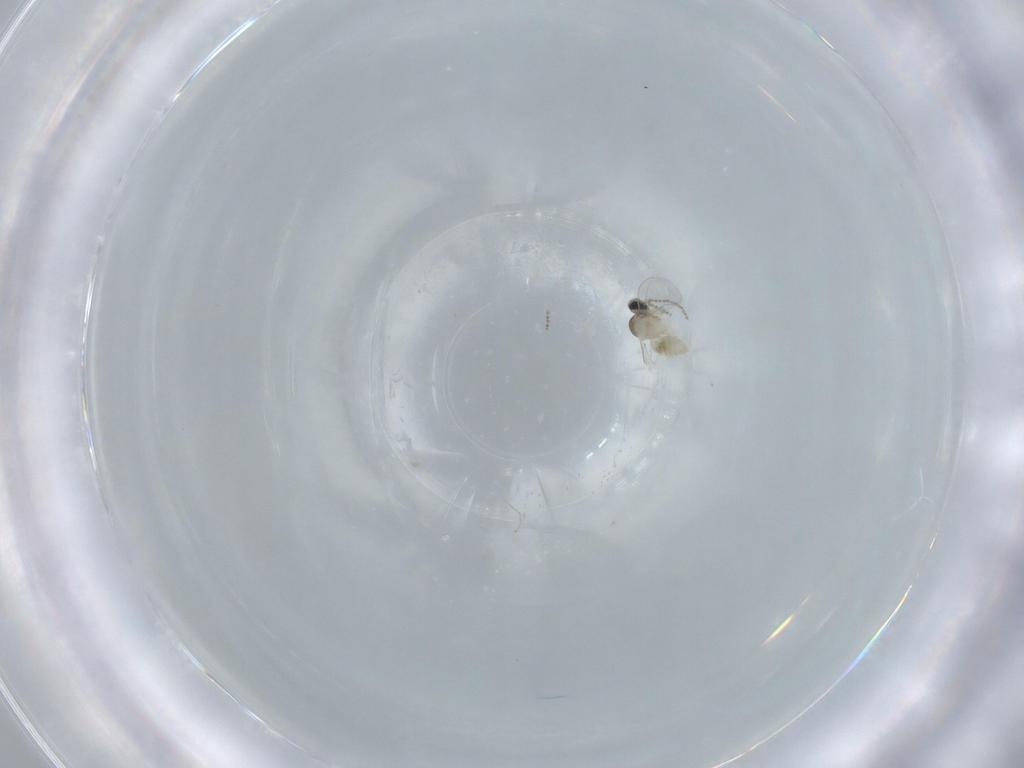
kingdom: Animalia
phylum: Arthropoda
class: Insecta
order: Diptera
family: Cecidomyiidae
